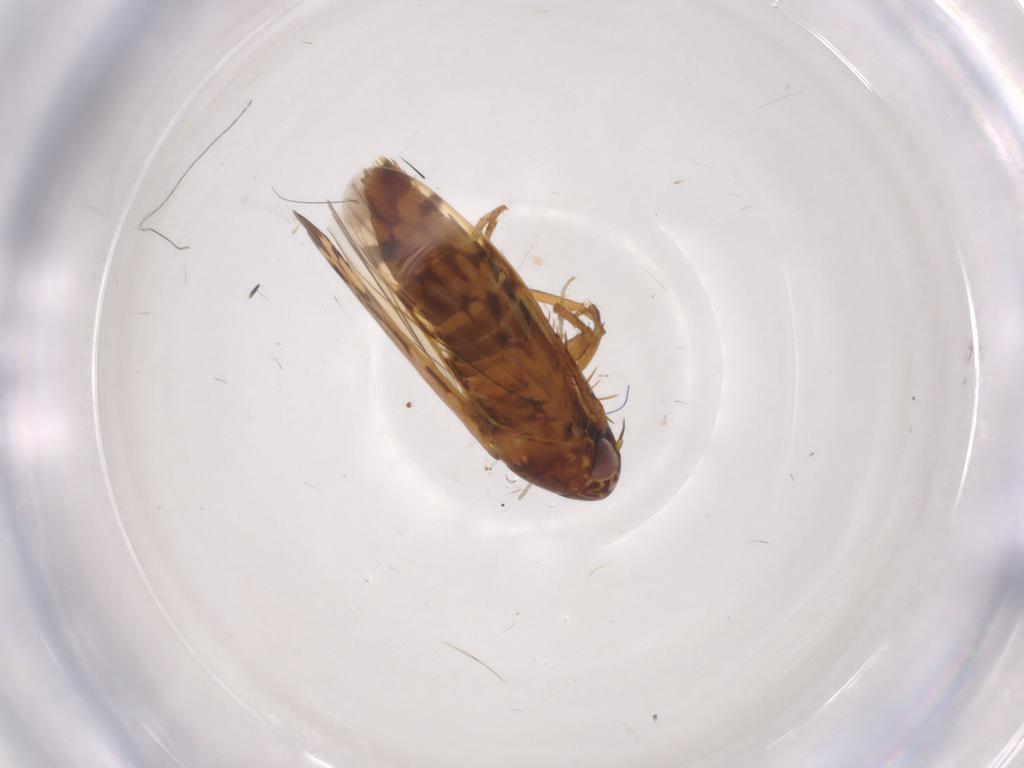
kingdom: Animalia
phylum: Arthropoda
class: Insecta
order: Hemiptera
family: Cicadellidae
